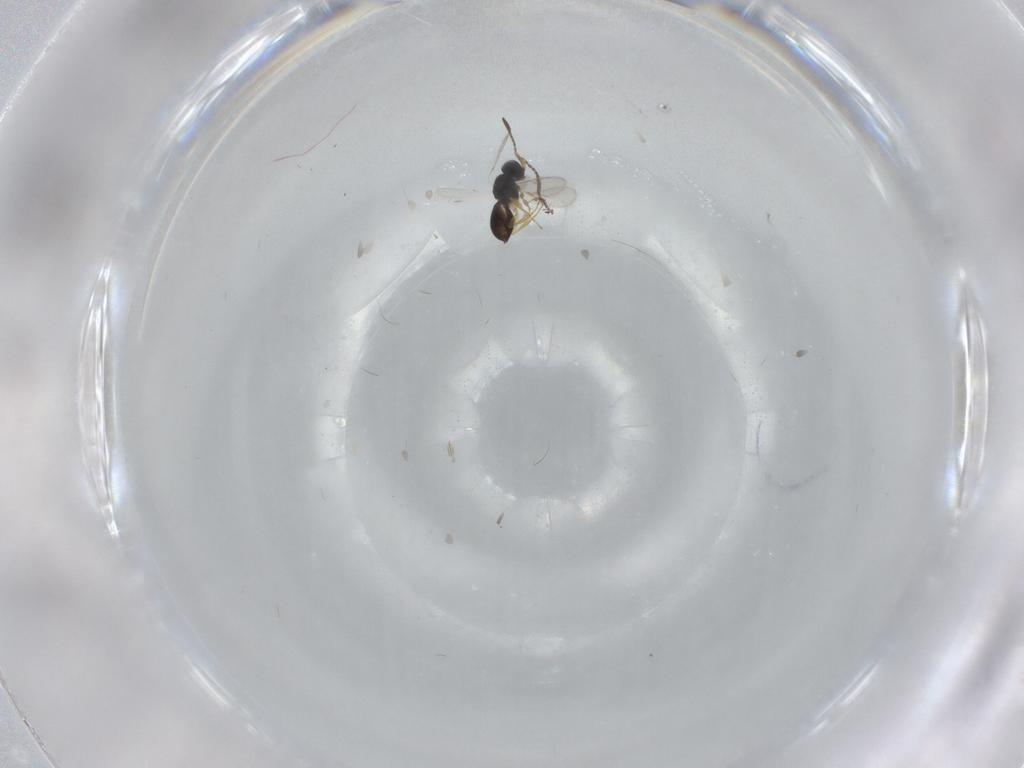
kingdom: Animalia
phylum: Arthropoda
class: Insecta
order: Hymenoptera
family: Scelionidae
